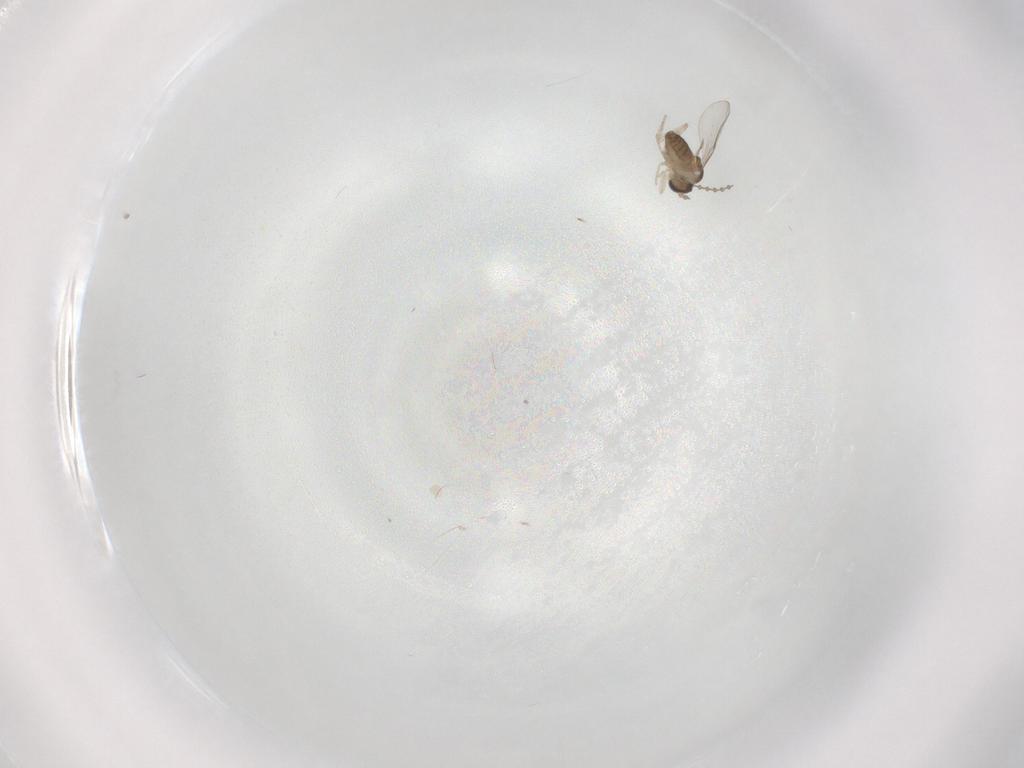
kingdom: Animalia
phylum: Arthropoda
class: Insecta
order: Diptera
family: Cecidomyiidae
